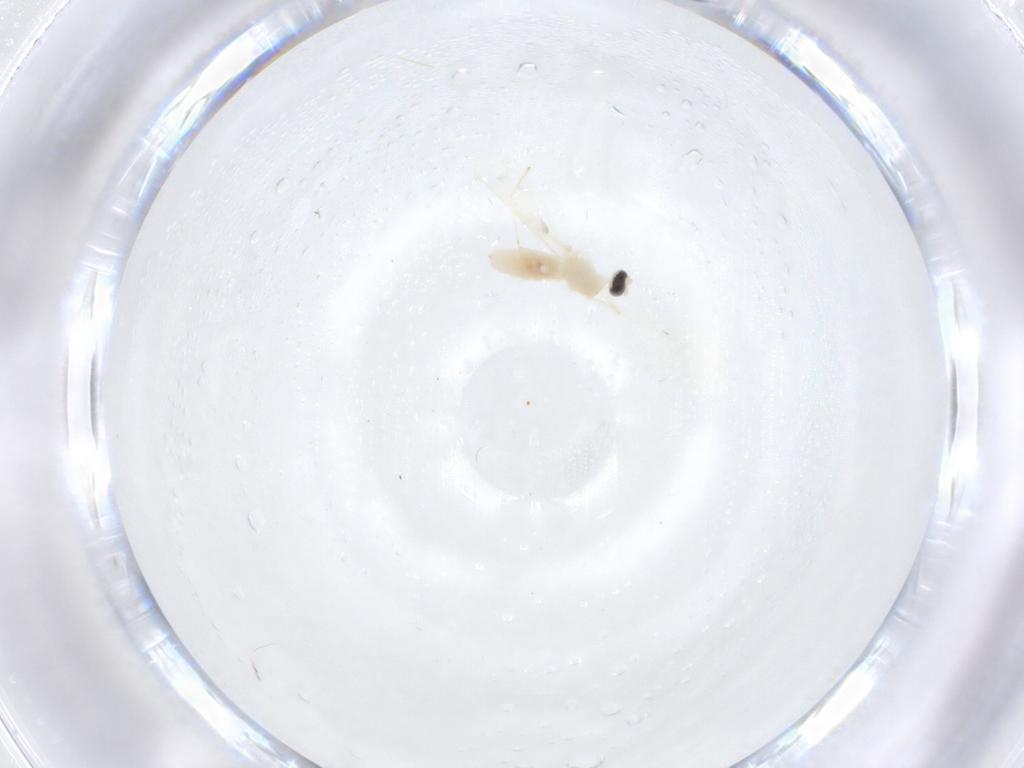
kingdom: Animalia
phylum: Arthropoda
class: Insecta
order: Diptera
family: Cecidomyiidae
